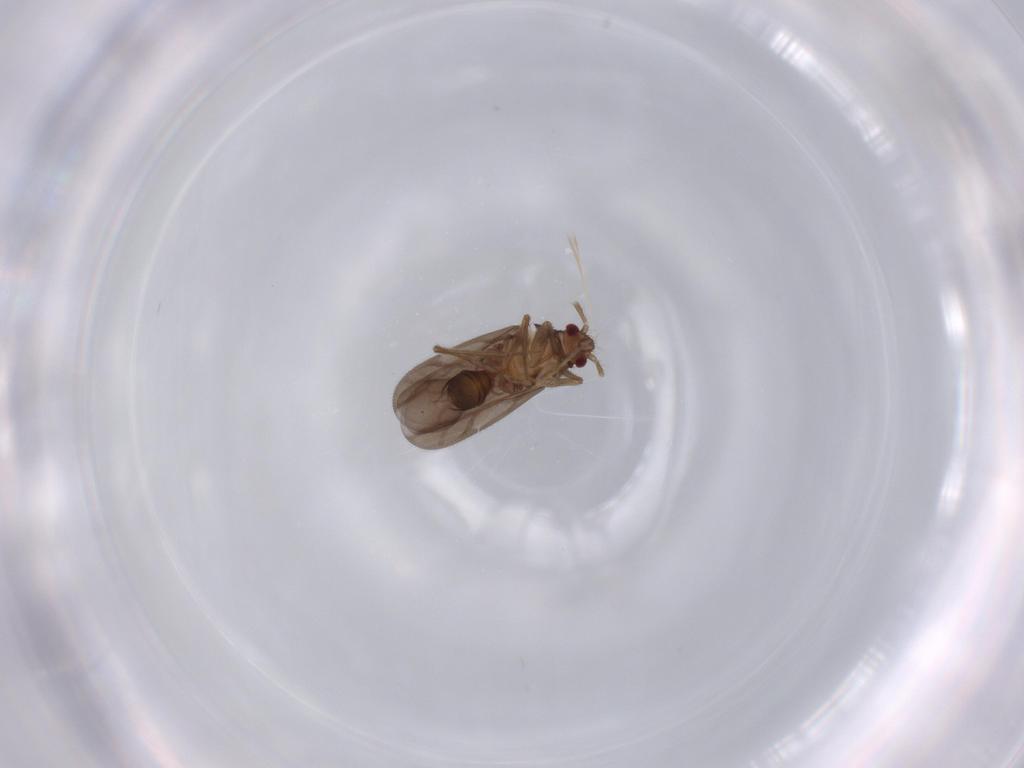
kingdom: Animalia
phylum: Arthropoda
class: Insecta
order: Hemiptera
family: Ceratocombidae
